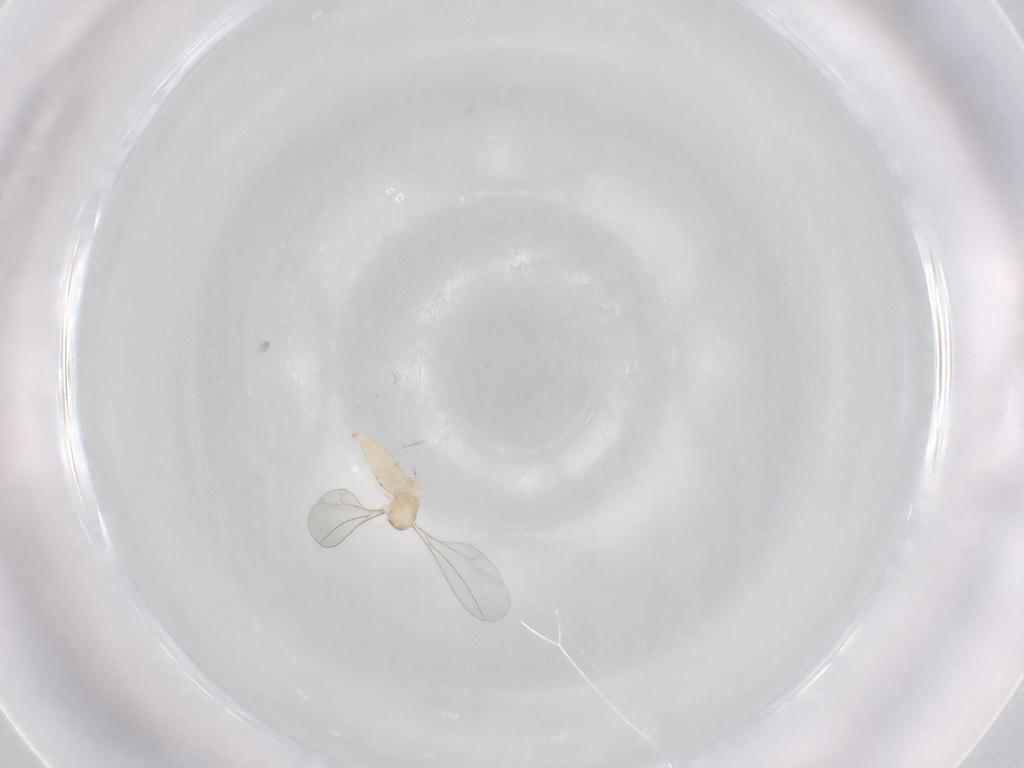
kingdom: Animalia
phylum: Arthropoda
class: Insecta
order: Diptera
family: Cecidomyiidae
